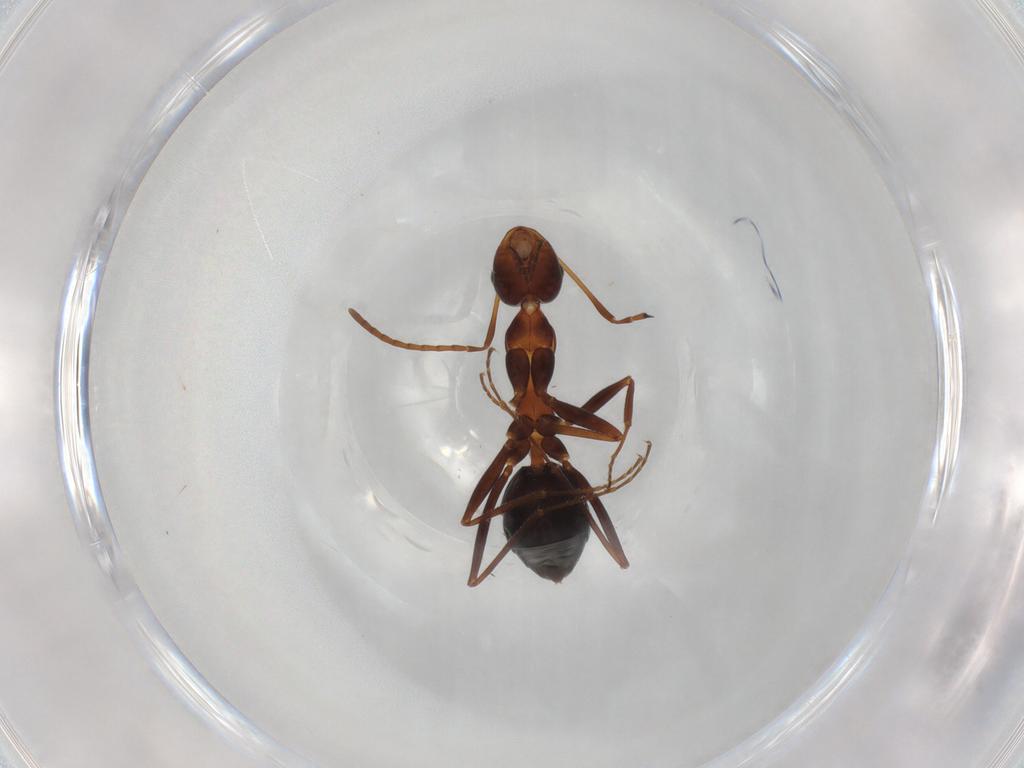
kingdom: Animalia
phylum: Arthropoda
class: Insecta
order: Hymenoptera
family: Formicidae
